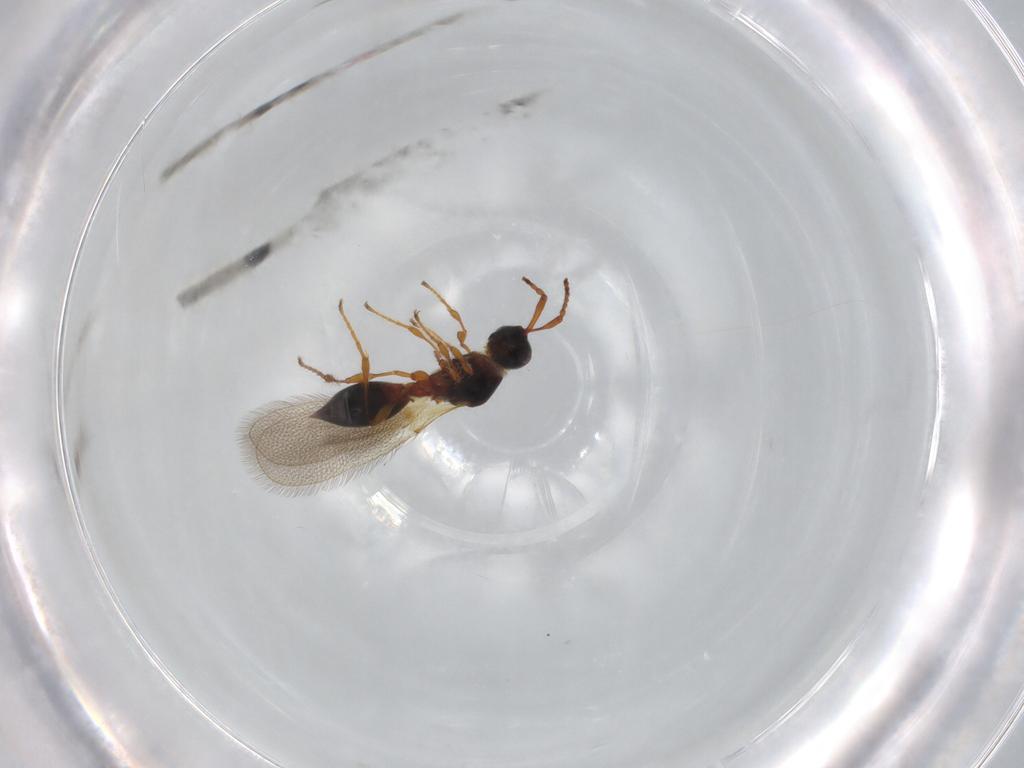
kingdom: Animalia
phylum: Arthropoda
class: Insecta
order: Hymenoptera
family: Diapriidae
